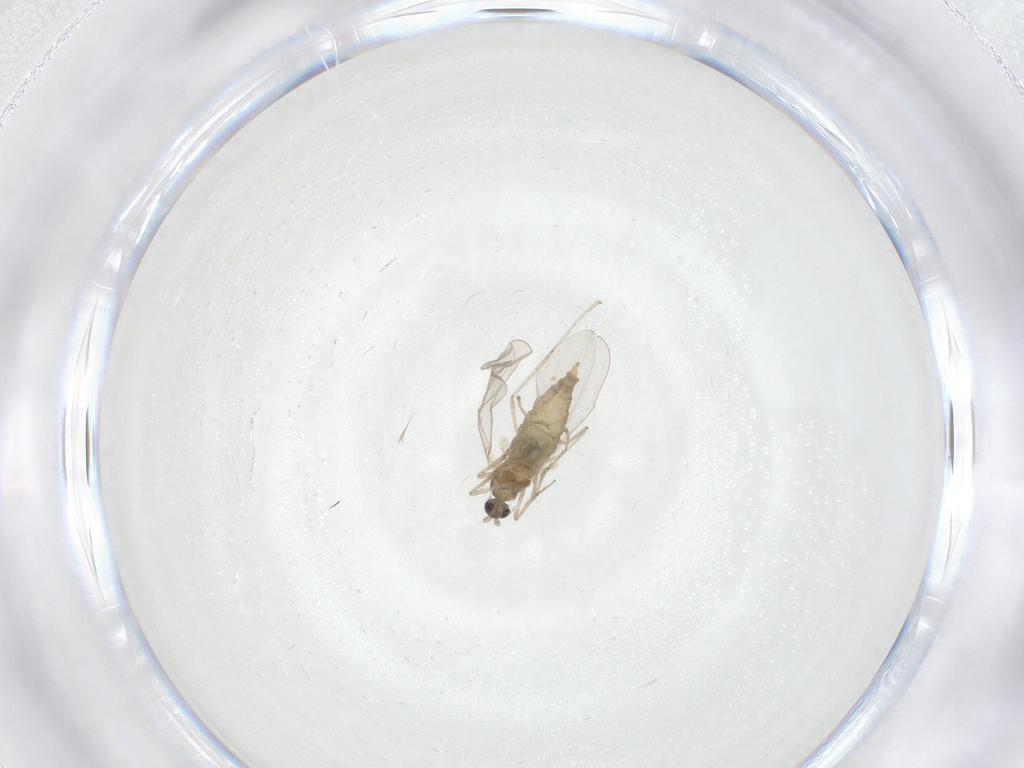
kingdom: Animalia
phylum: Arthropoda
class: Insecta
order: Diptera
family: Cecidomyiidae
